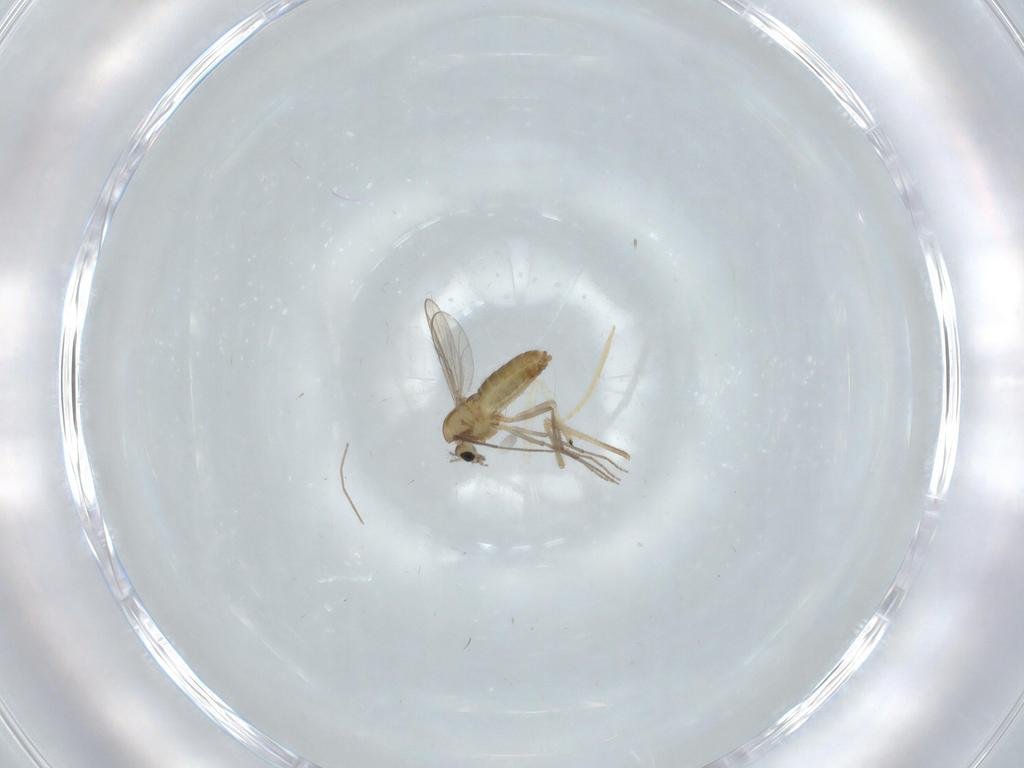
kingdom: Animalia
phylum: Arthropoda
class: Insecta
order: Diptera
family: Chironomidae
